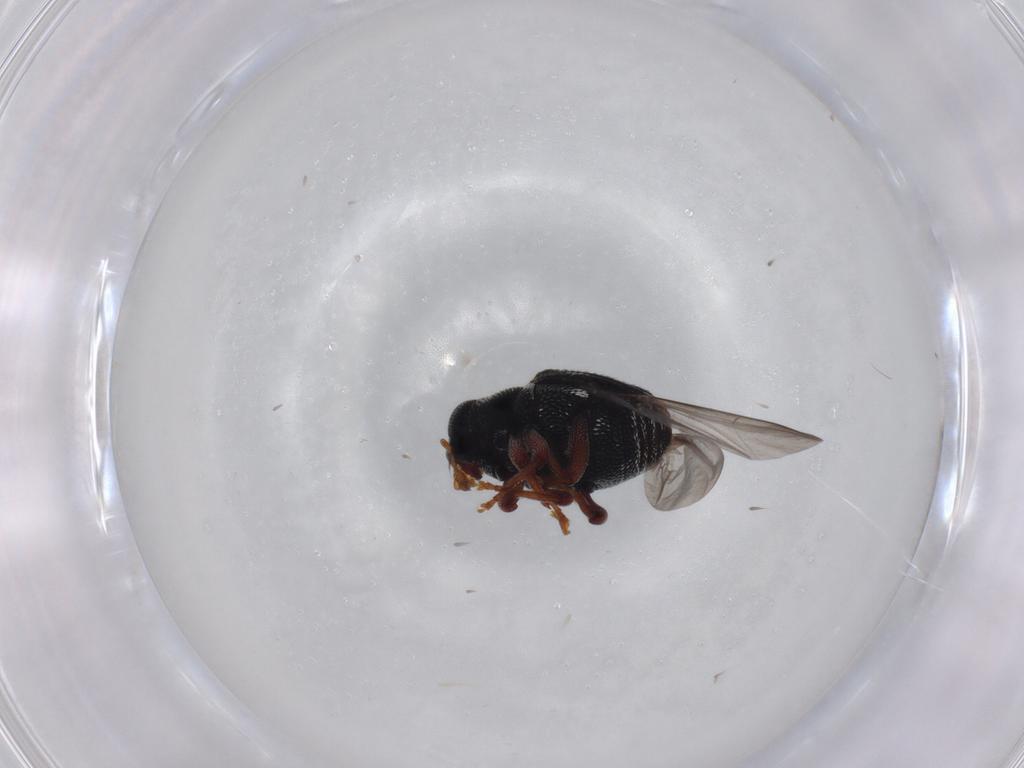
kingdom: Animalia
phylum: Arthropoda
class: Insecta
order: Coleoptera
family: Curculionidae
